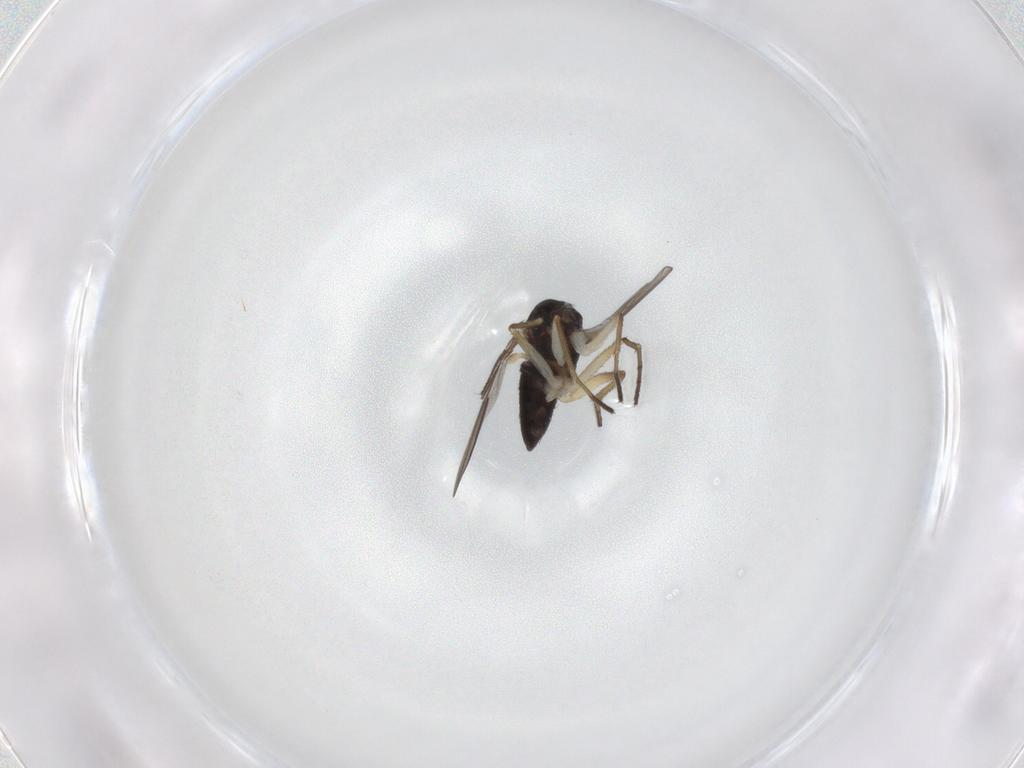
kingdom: Animalia
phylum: Arthropoda
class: Insecta
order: Diptera
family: Dolichopodidae
